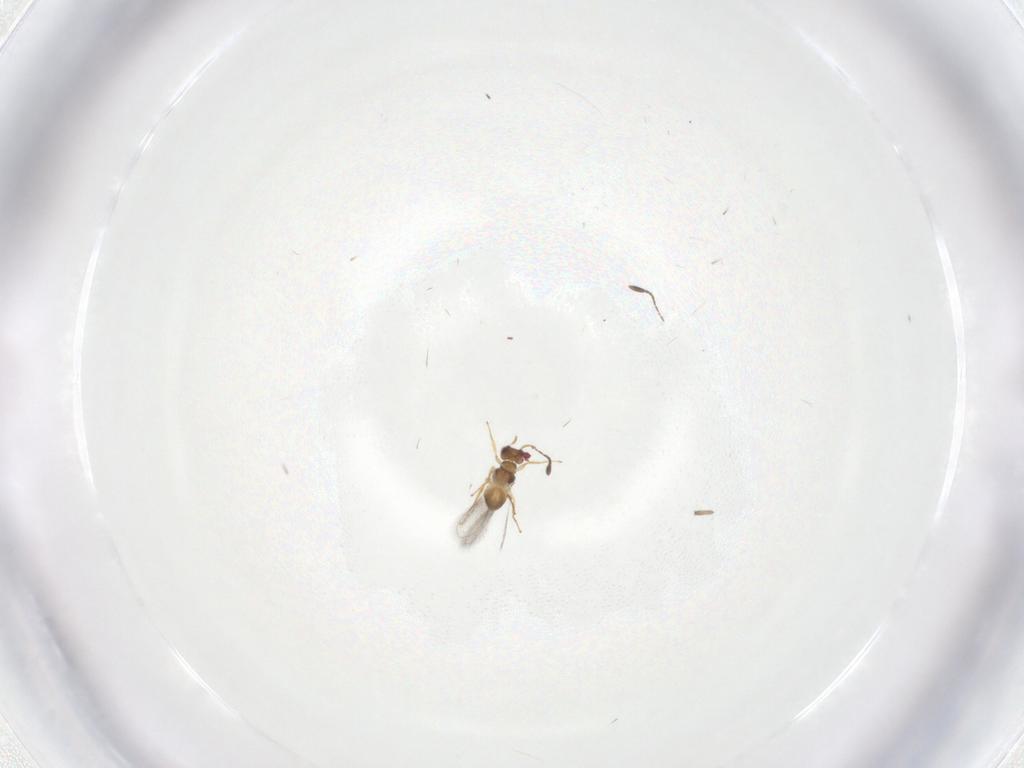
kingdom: Animalia
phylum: Arthropoda
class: Insecta
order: Hymenoptera
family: Mymaridae
